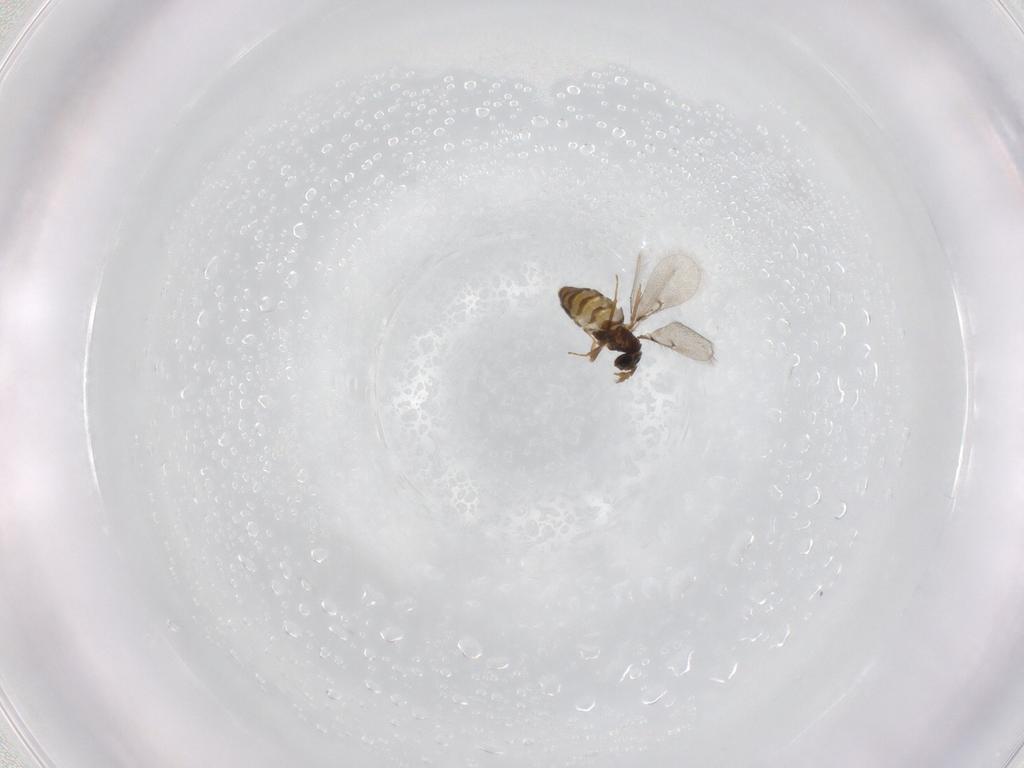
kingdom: Animalia
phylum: Arthropoda
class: Insecta
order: Hymenoptera
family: Trichogrammatidae
